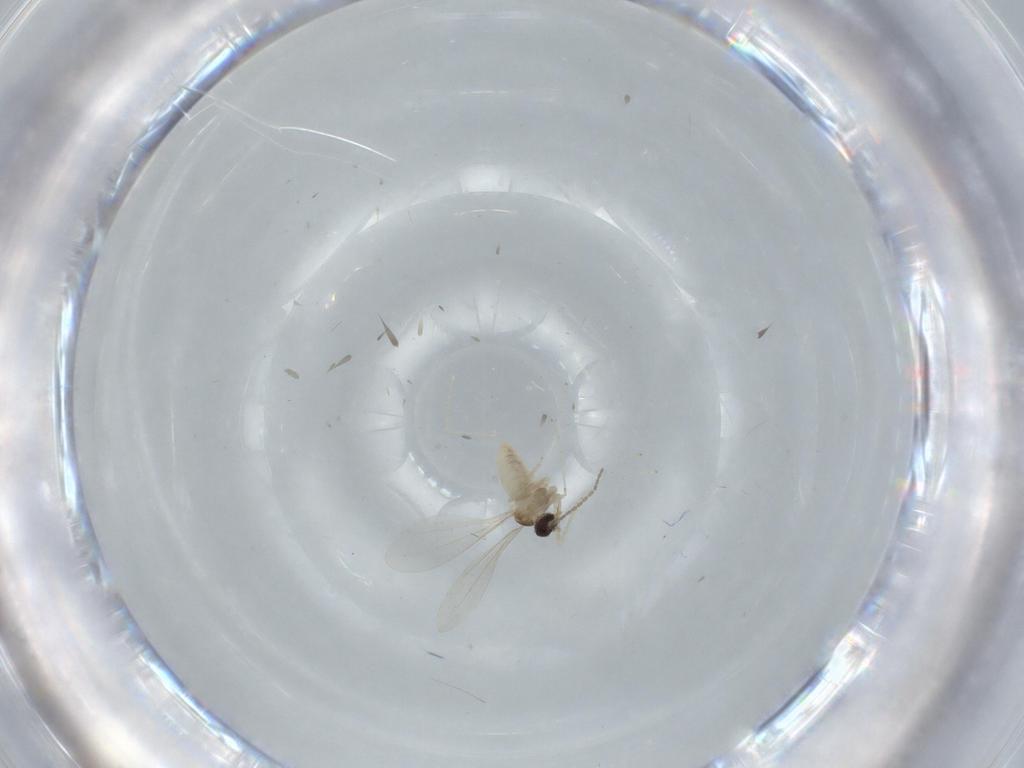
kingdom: Animalia
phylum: Arthropoda
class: Insecta
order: Diptera
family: Cecidomyiidae
